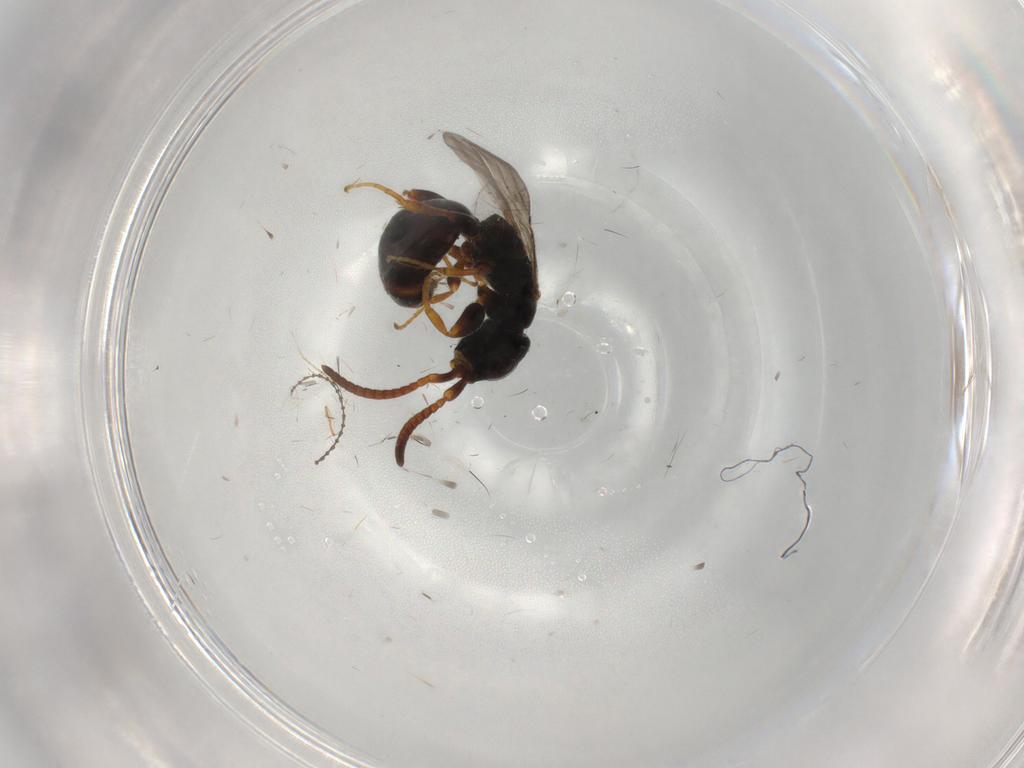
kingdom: Animalia
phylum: Arthropoda
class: Insecta
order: Hymenoptera
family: Bethylidae
